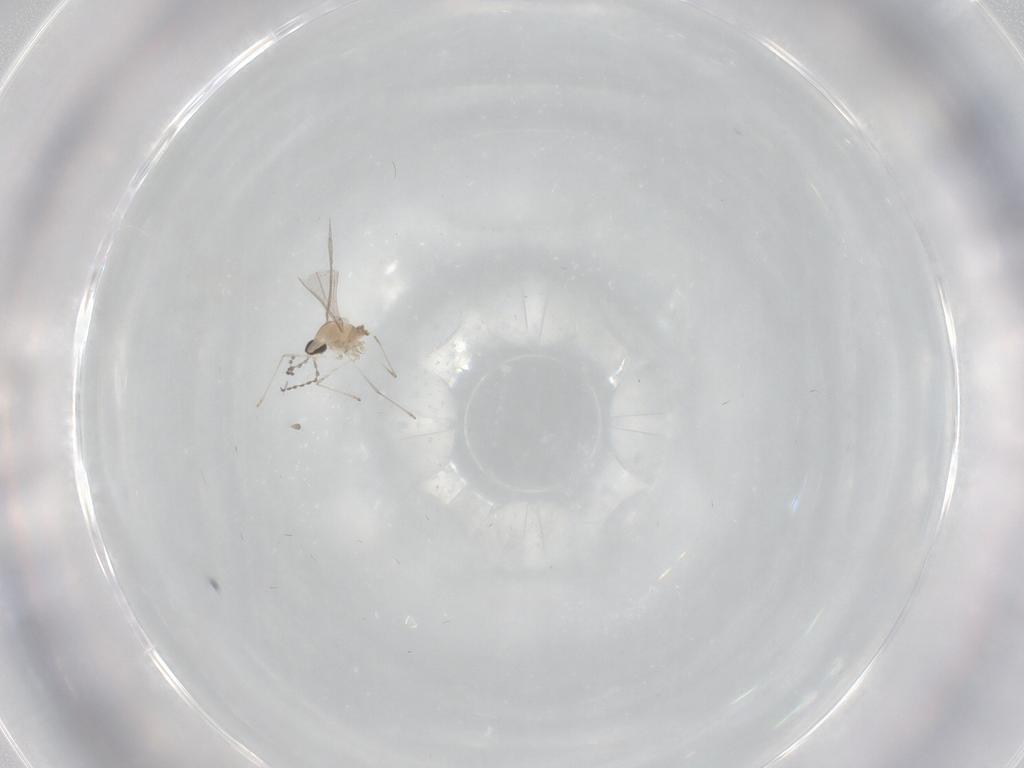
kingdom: Animalia
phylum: Arthropoda
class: Insecta
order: Diptera
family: Cecidomyiidae
